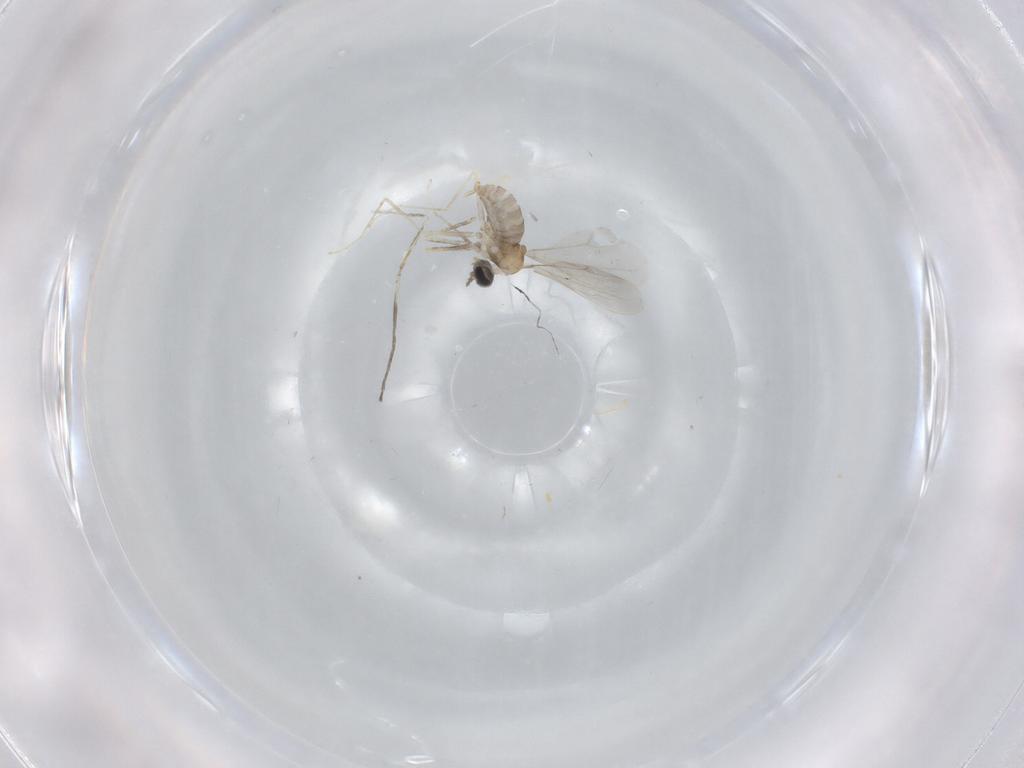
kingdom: Animalia
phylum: Arthropoda
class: Insecta
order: Diptera
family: Cecidomyiidae
